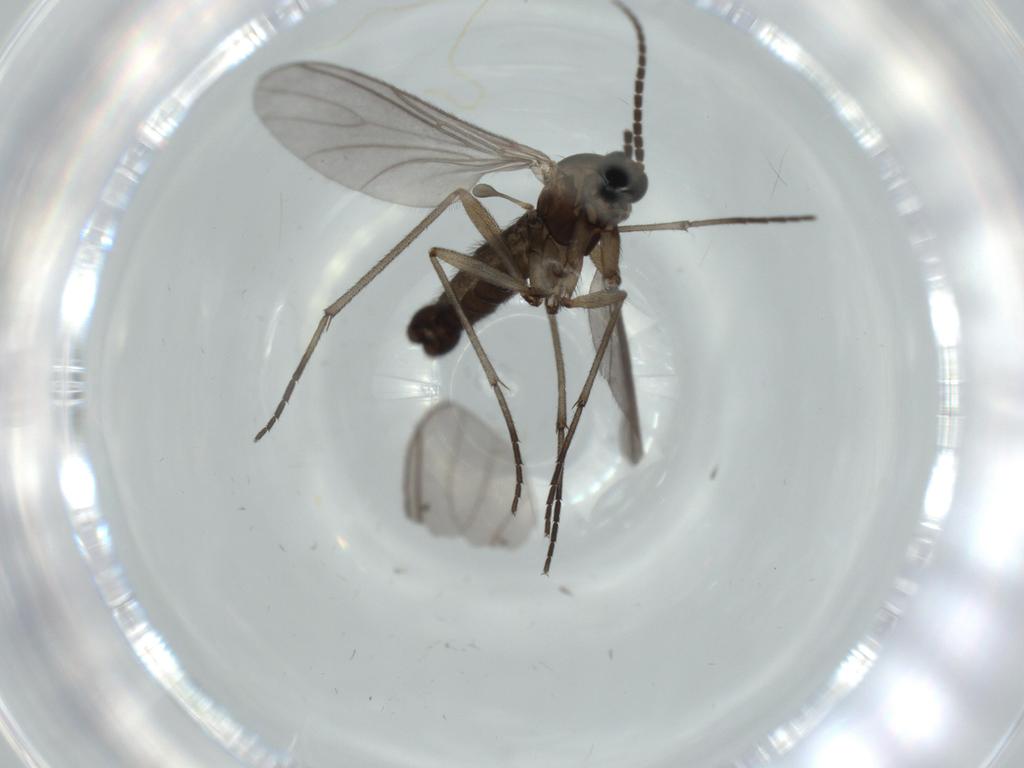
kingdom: Animalia
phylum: Arthropoda
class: Insecta
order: Diptera
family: Sciaridae
